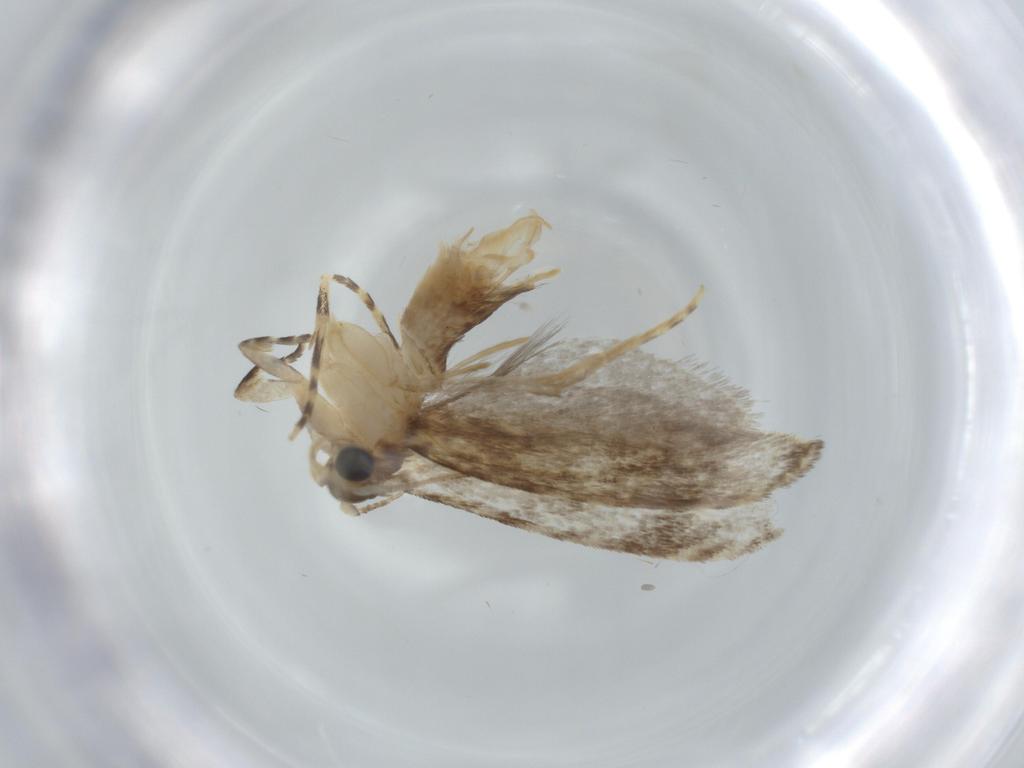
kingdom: Animalia
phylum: Arthropoda
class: Insecta
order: Lepidoptera
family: Tineidae
